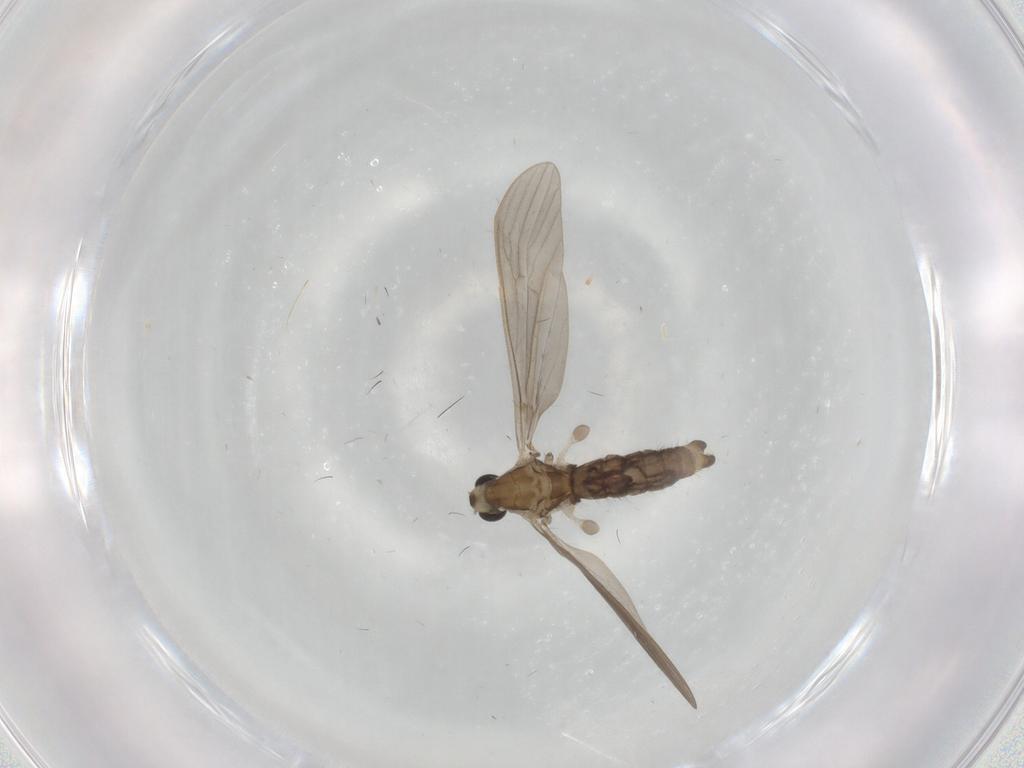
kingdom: Animalia
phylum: Arthropoda
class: Insecta
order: Diptera
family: Limoniidae
